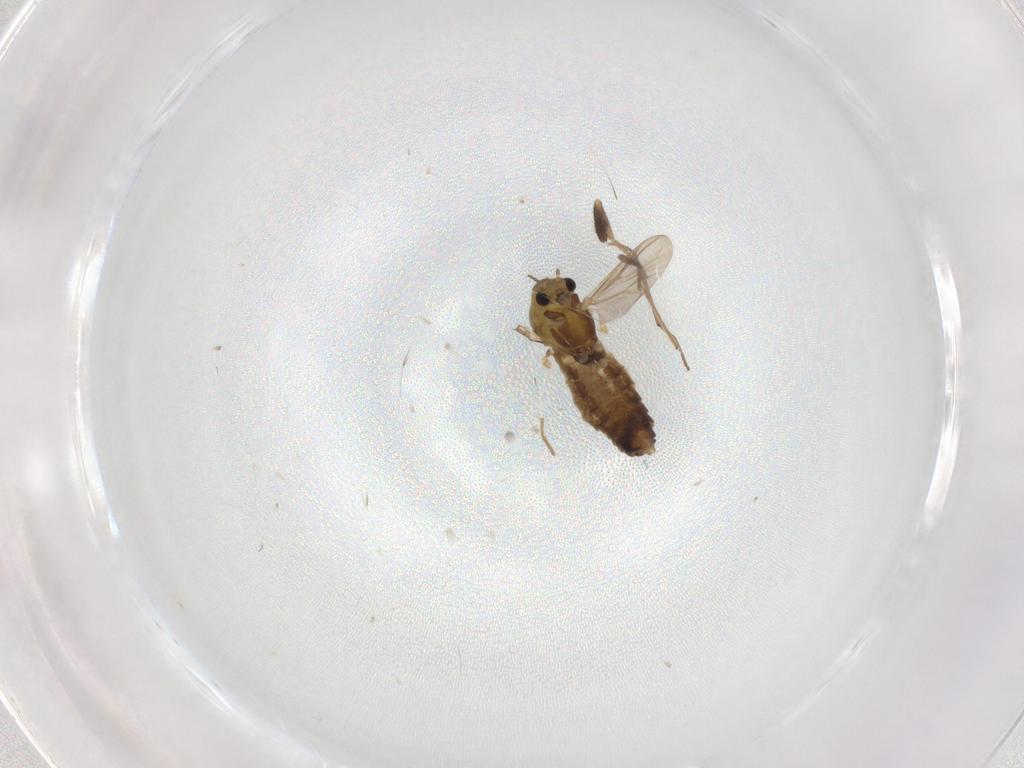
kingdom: Animalia
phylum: Arthropoda
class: Insecta
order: Diptera
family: Chironomidae
